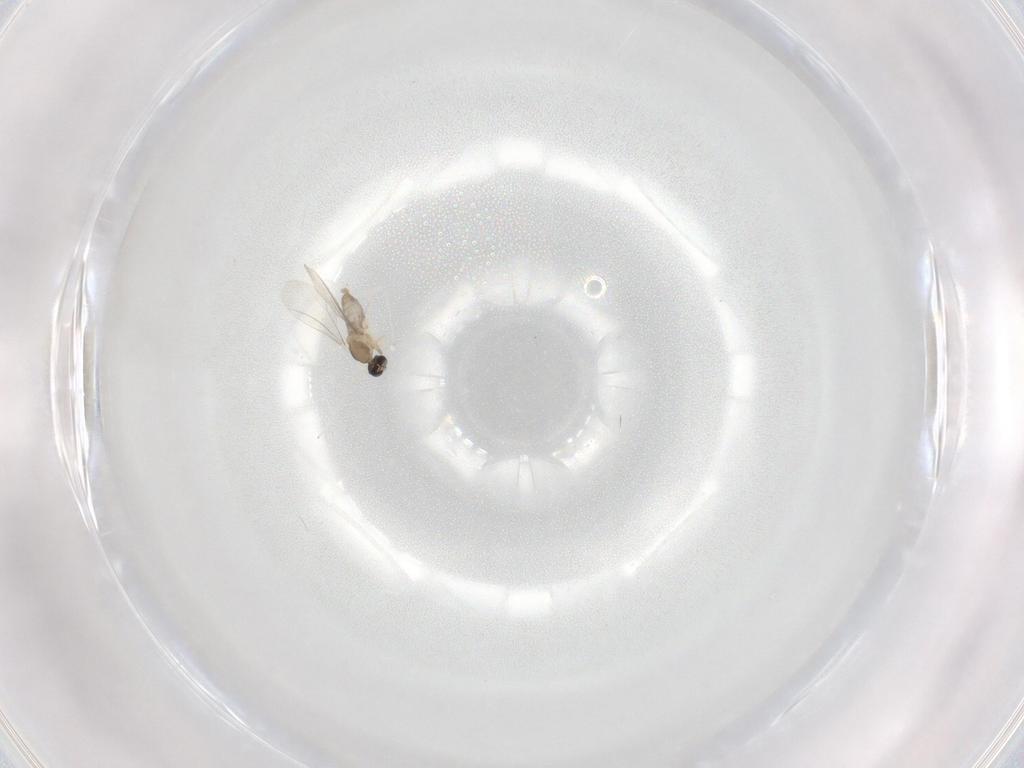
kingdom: Animalia
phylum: Arthropoda
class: Insecta
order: Diptera
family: Cecidomyiidae
